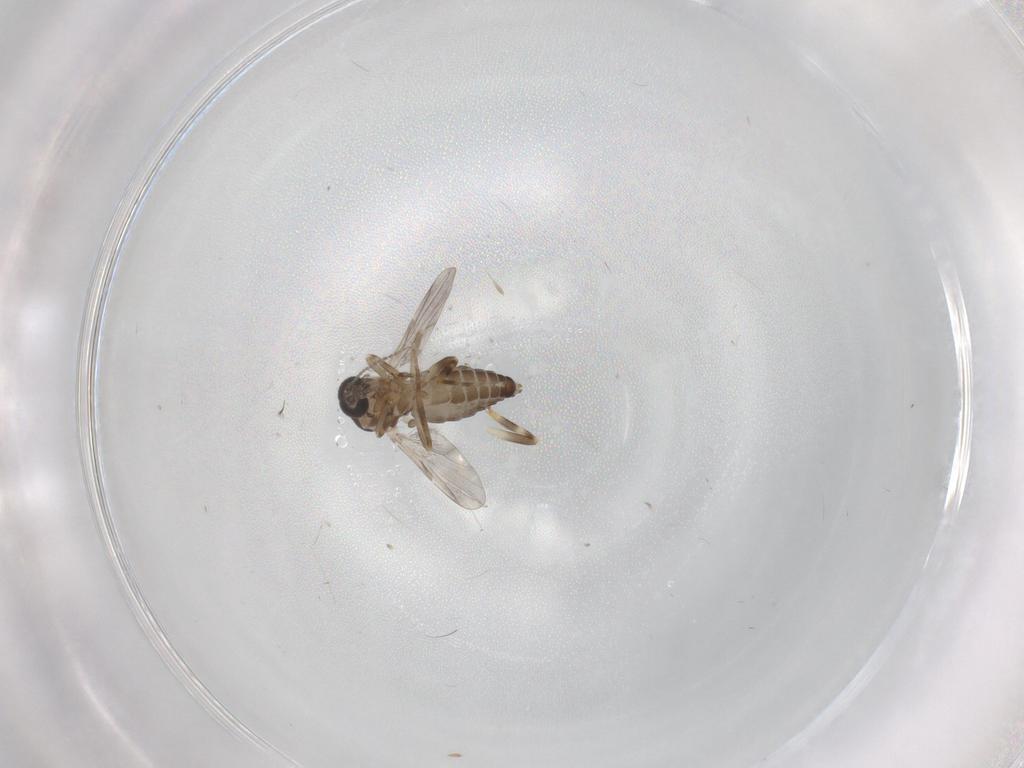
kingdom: Animalia
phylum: Arthropoda
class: Insecta
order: Diptera
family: Ceratopogonidae
